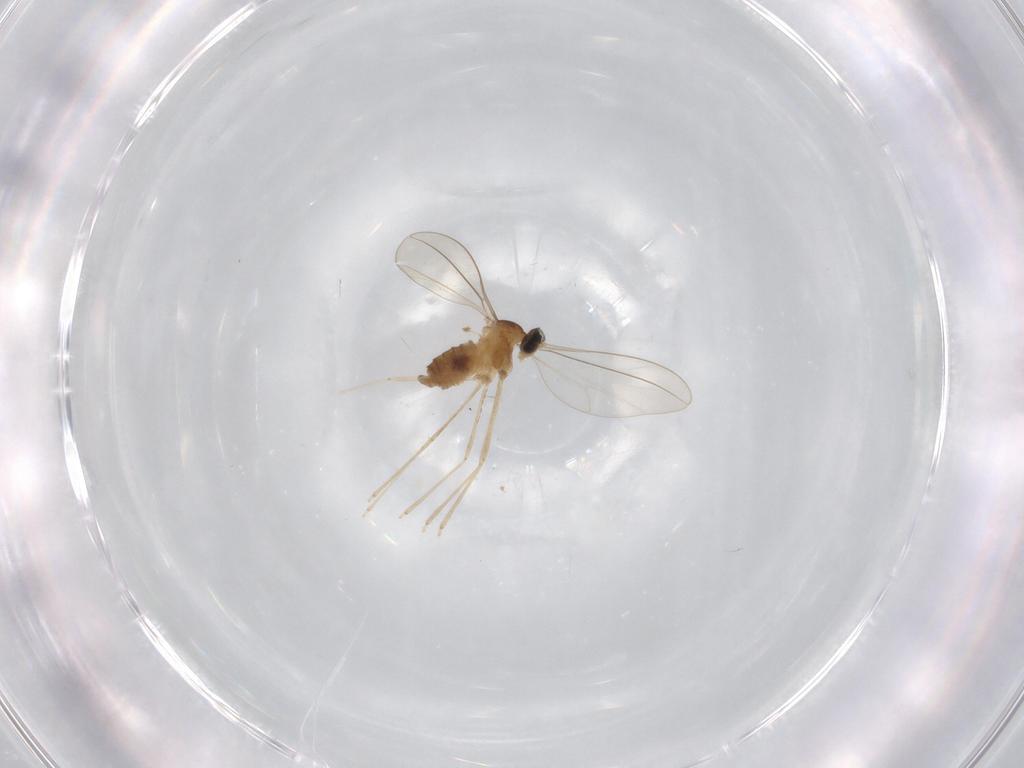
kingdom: Animalia
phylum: Arthropoda
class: Insecta
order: Diptera
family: Cecidomyiidae
